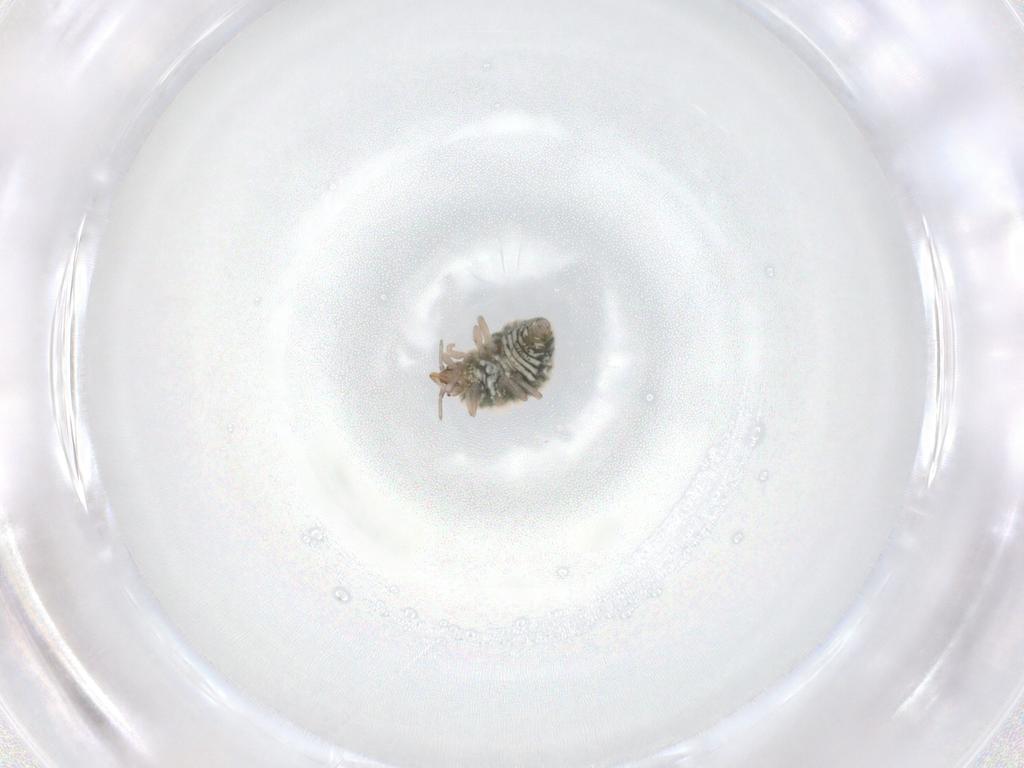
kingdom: Animalia
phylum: Arthropoda
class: Insecta
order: Neuroptera
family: Coniopterygidae
